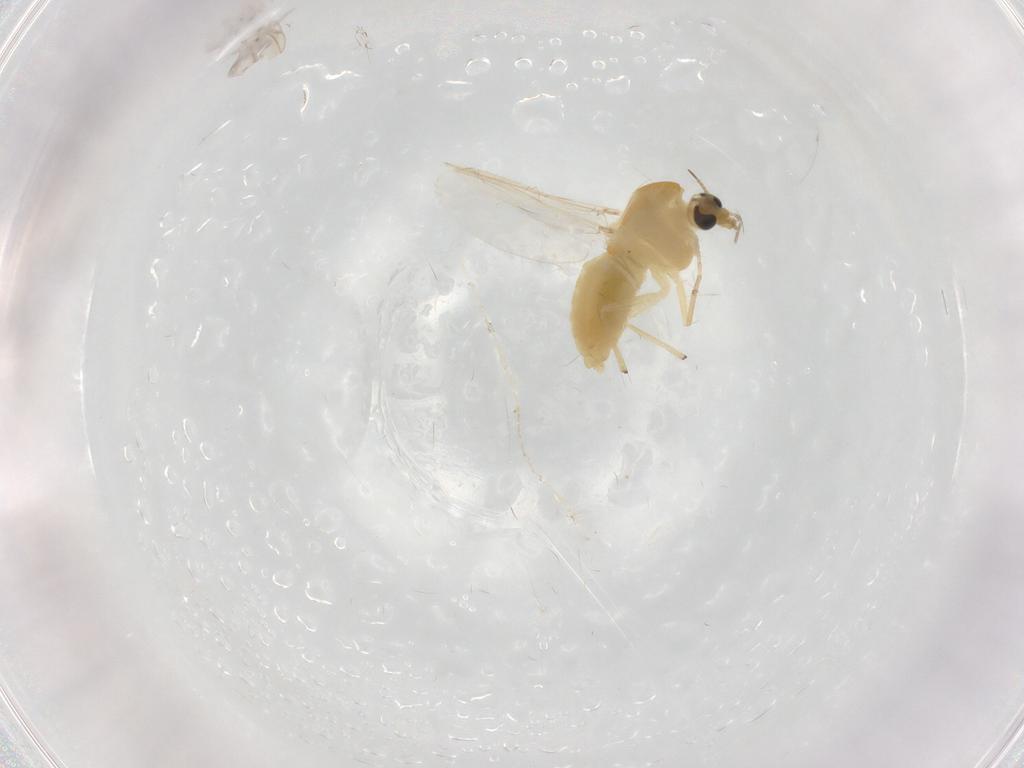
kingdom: Animalia
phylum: Arthropoda
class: Insecta
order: Diptera
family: Chironomidae
